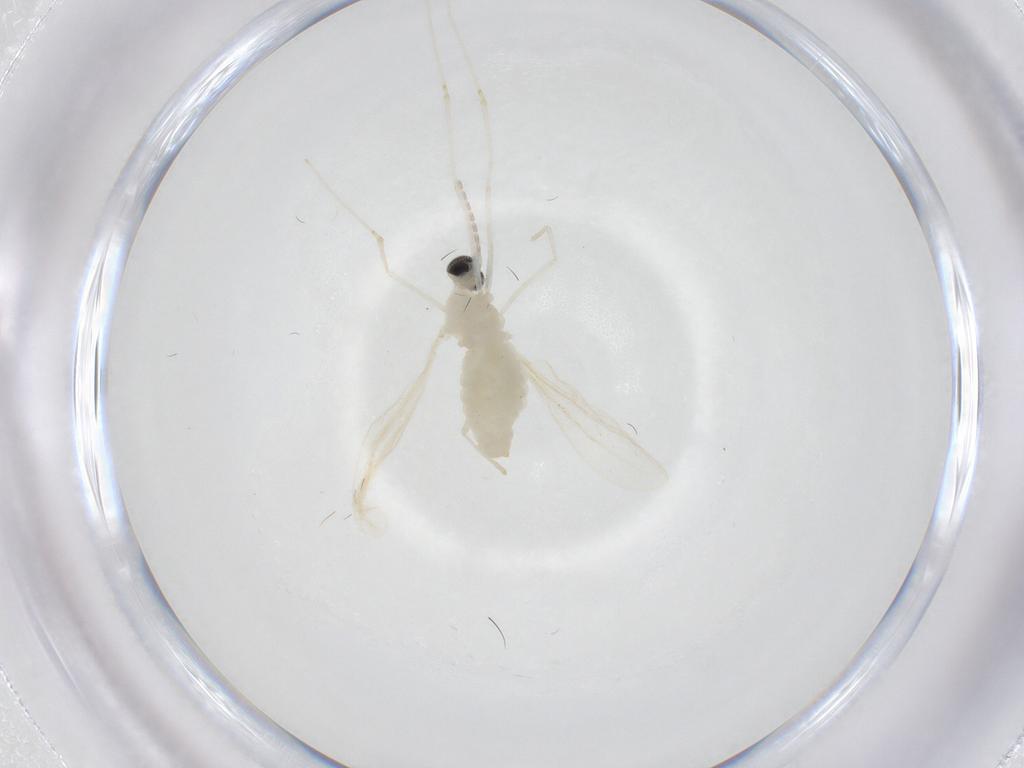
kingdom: Animalia
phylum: Arthropoda
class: Insecta
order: Diptera
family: Cecidomyiidae
